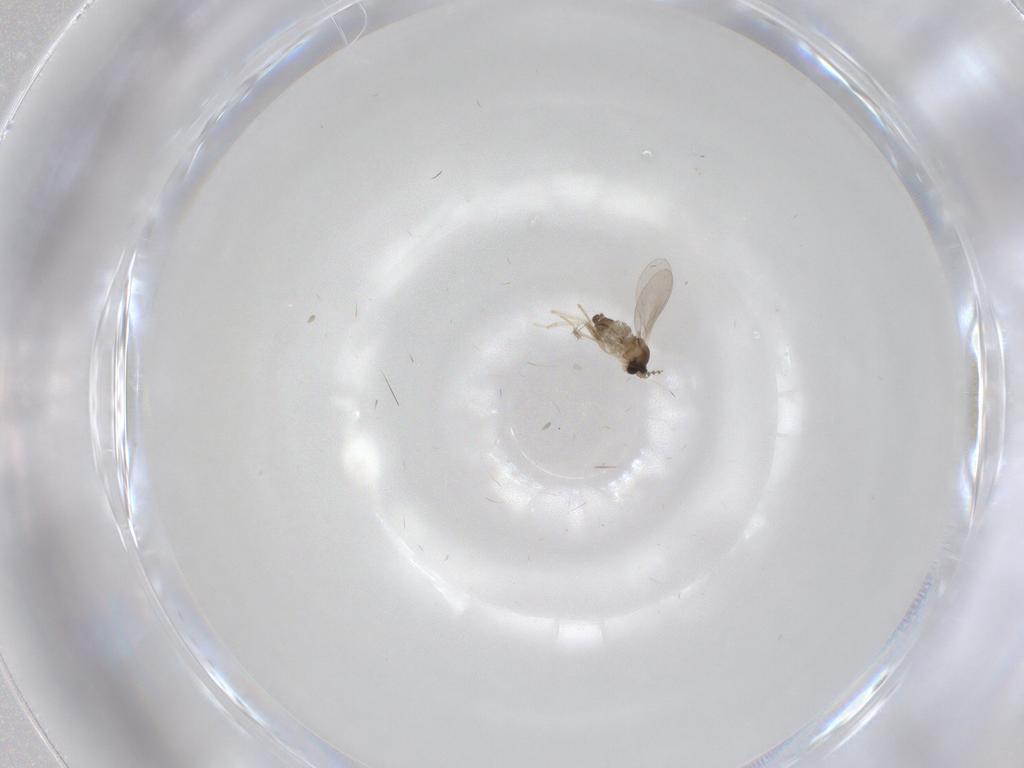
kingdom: Animalia
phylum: Arthropoda
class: Insecta
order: Diptera
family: Cecidomyiidae
